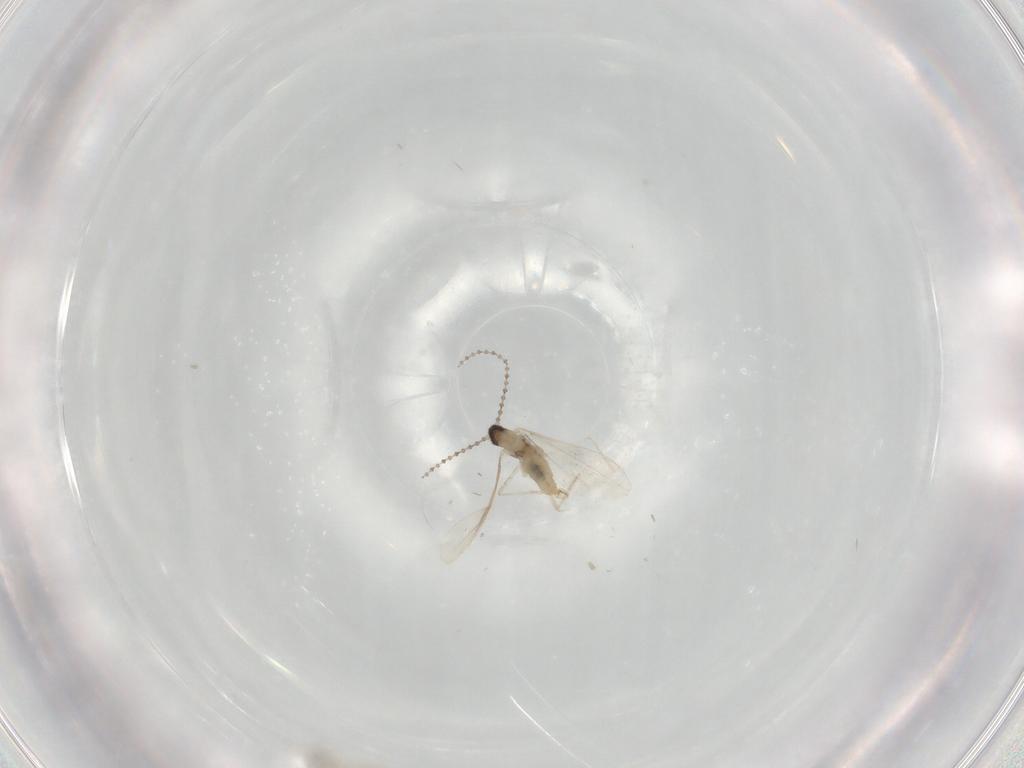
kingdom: Animalia
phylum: Arthropoda
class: Insecta
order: Diptera
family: Cecidomyiidae
